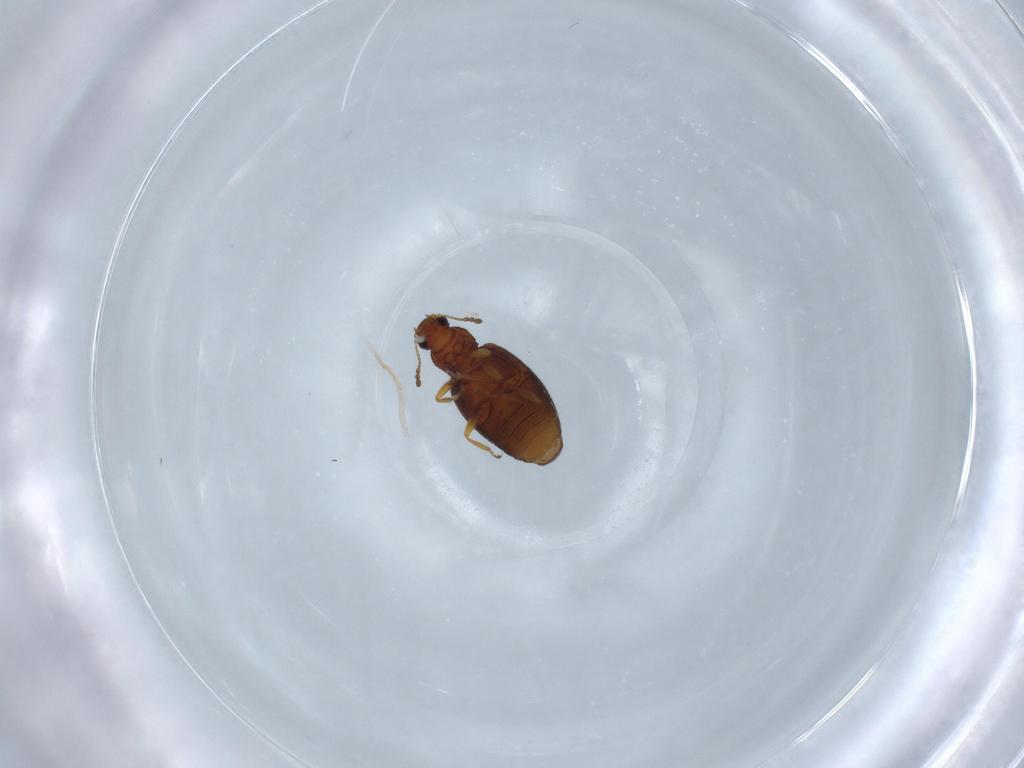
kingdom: Animalia
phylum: Arthropoda
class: Insecta
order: Coleoptera
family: Latridiidae
